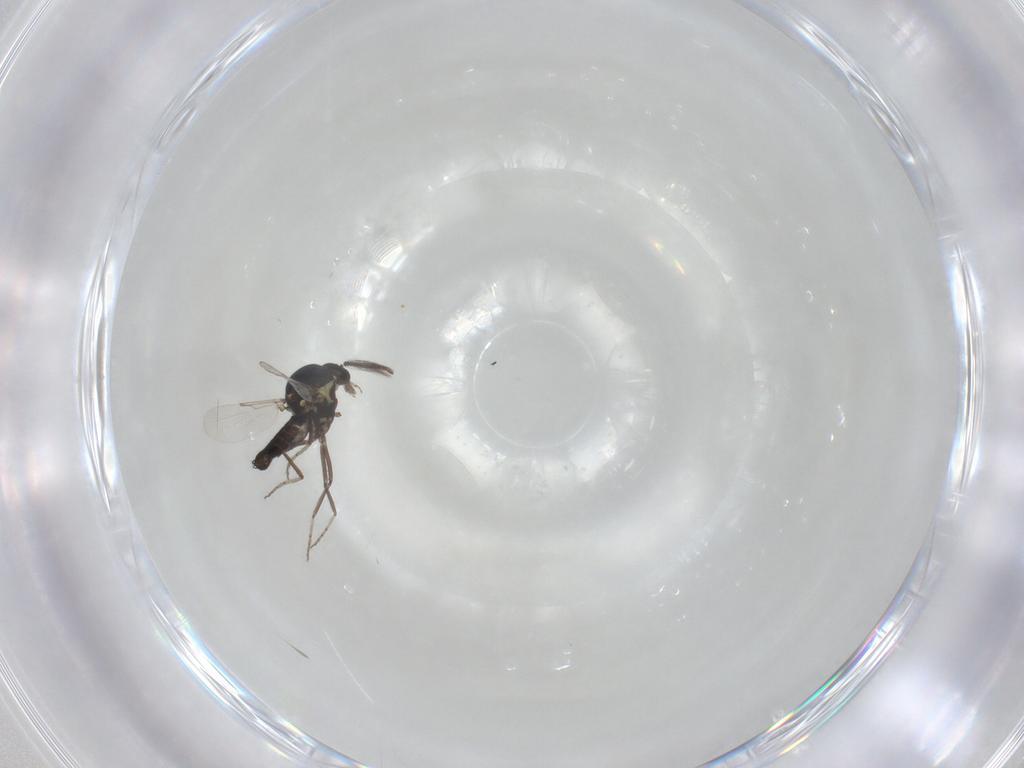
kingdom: Animalia
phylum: Arthropoda
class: Insecta
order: Diptera
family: Ceratopogonidae
